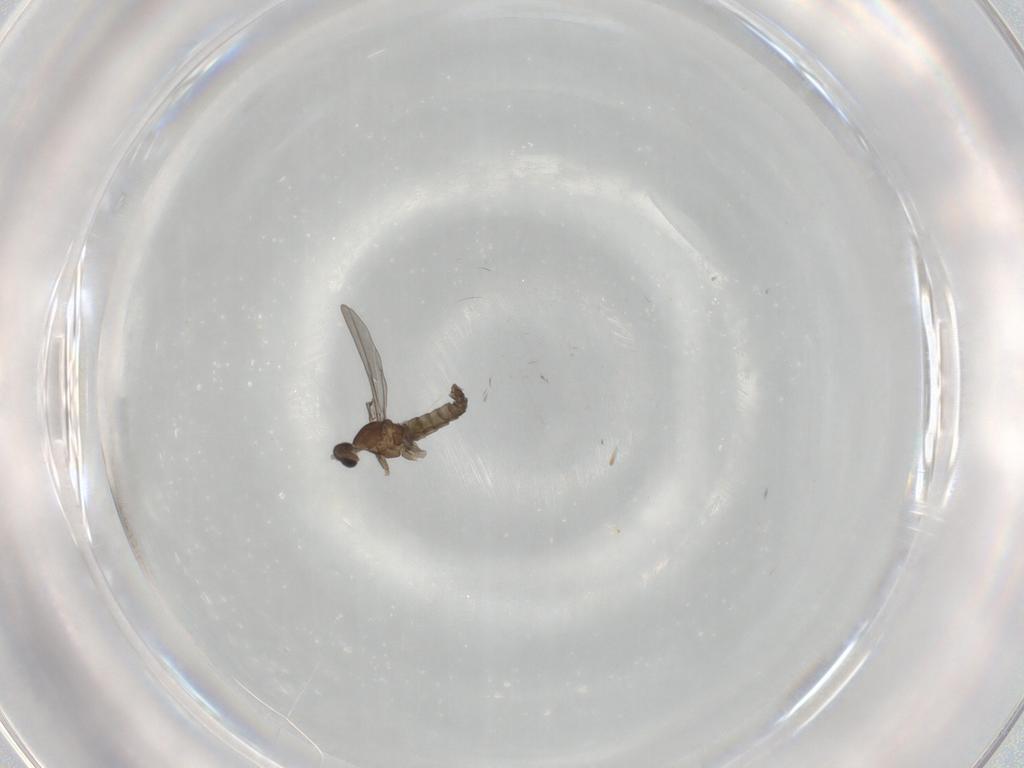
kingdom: Animalia
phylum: Arthropoda
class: Insecta
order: Diptera
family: Cecidomyiidae
